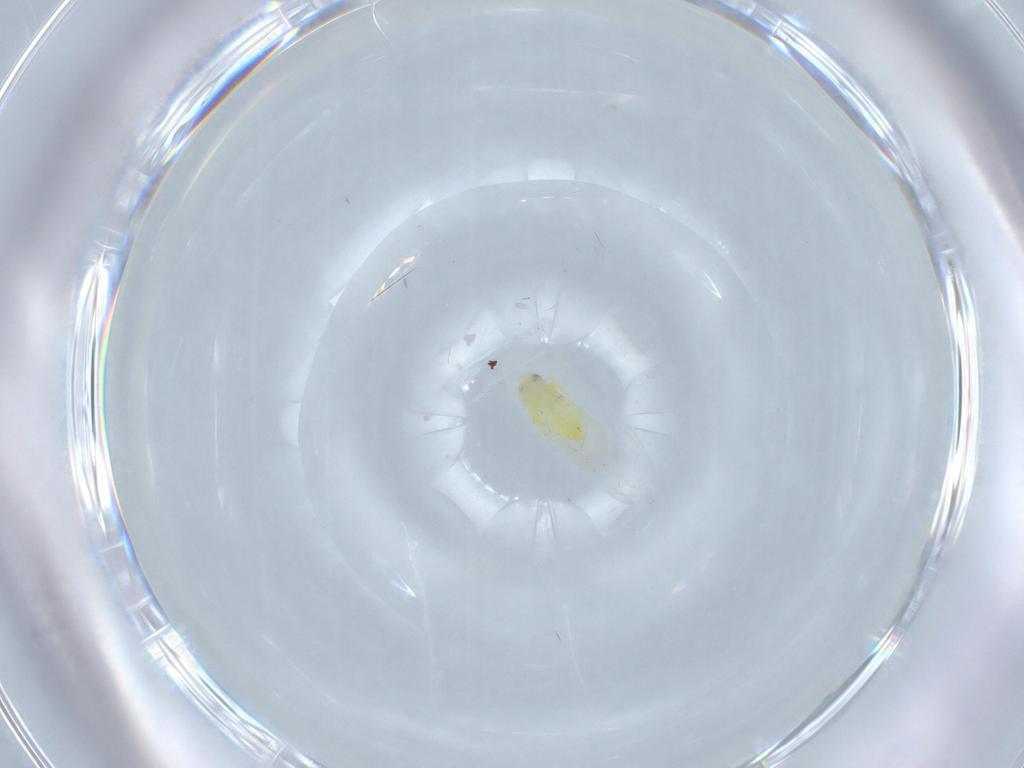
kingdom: Animalia
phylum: Arthropoda
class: Insecta
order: Hemiptera
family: Aleyrodidae
